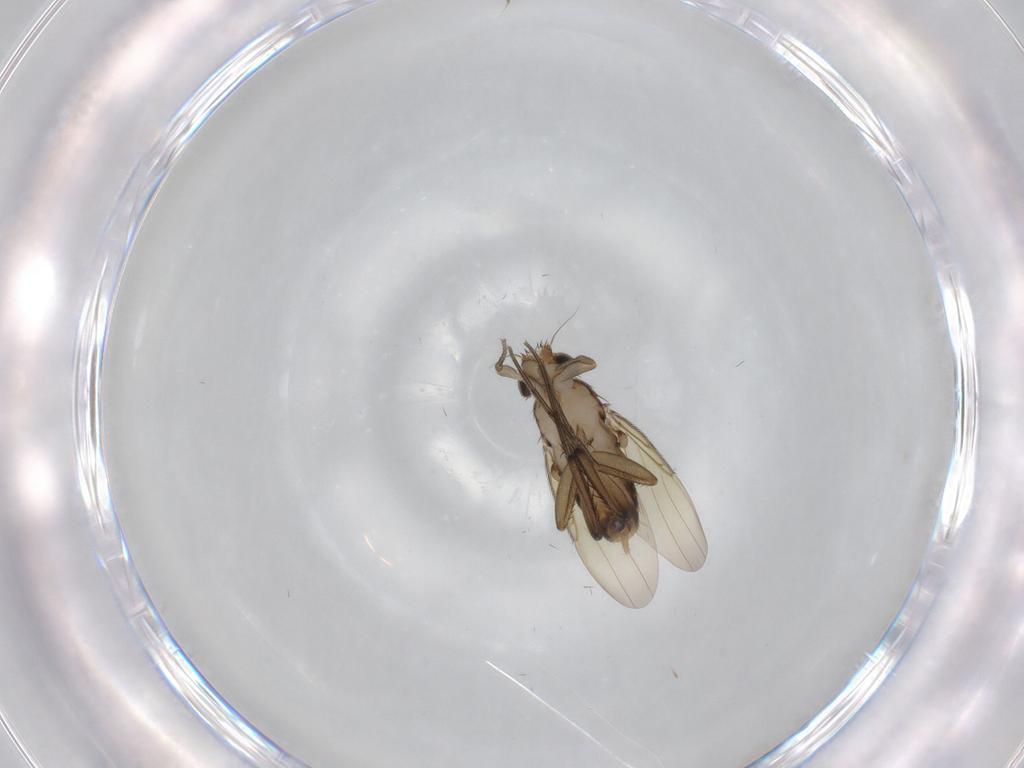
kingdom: Animalia
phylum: Arthropoda
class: Insecta
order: Diptera
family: Phoridae
